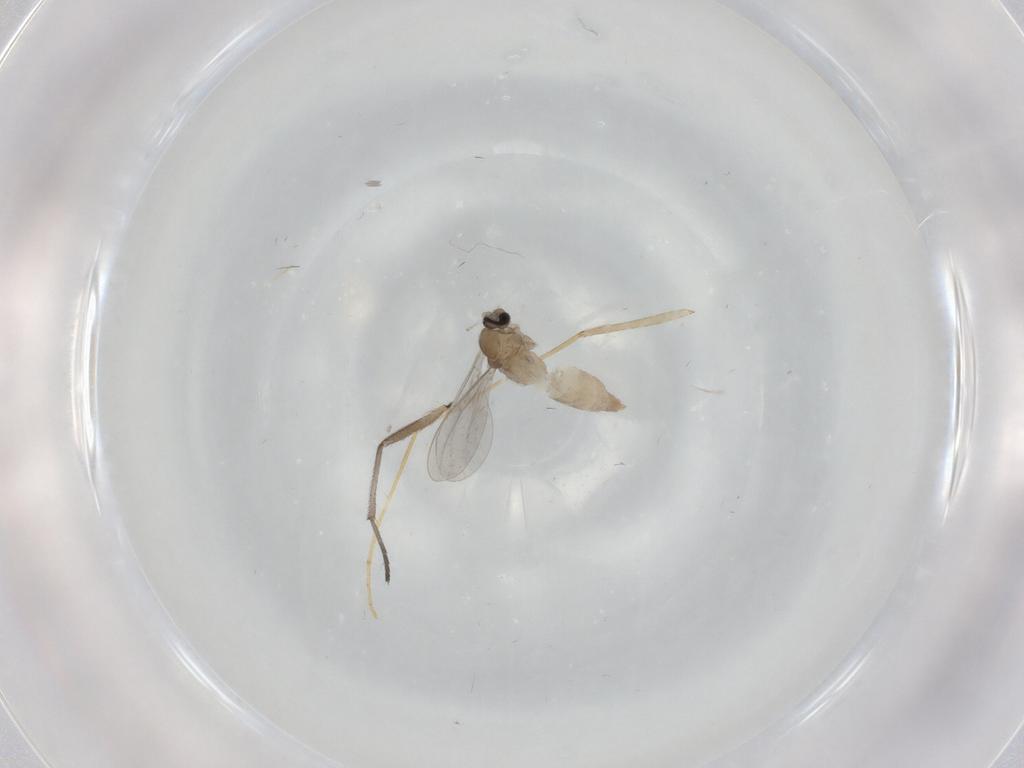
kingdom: Animalia
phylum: Arthropoda
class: Insecta
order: Diptera
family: Cecidomyiidae
